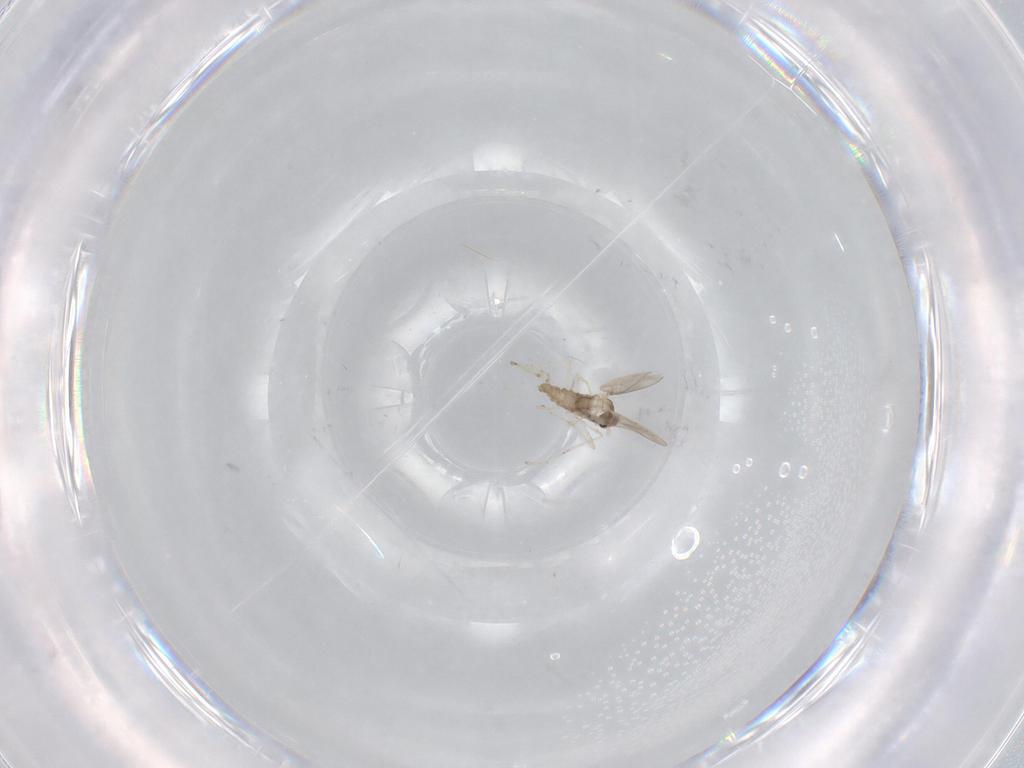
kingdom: Animalia
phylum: Arthropoda
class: Insecta
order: Diptera
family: Cecidomyiidae
